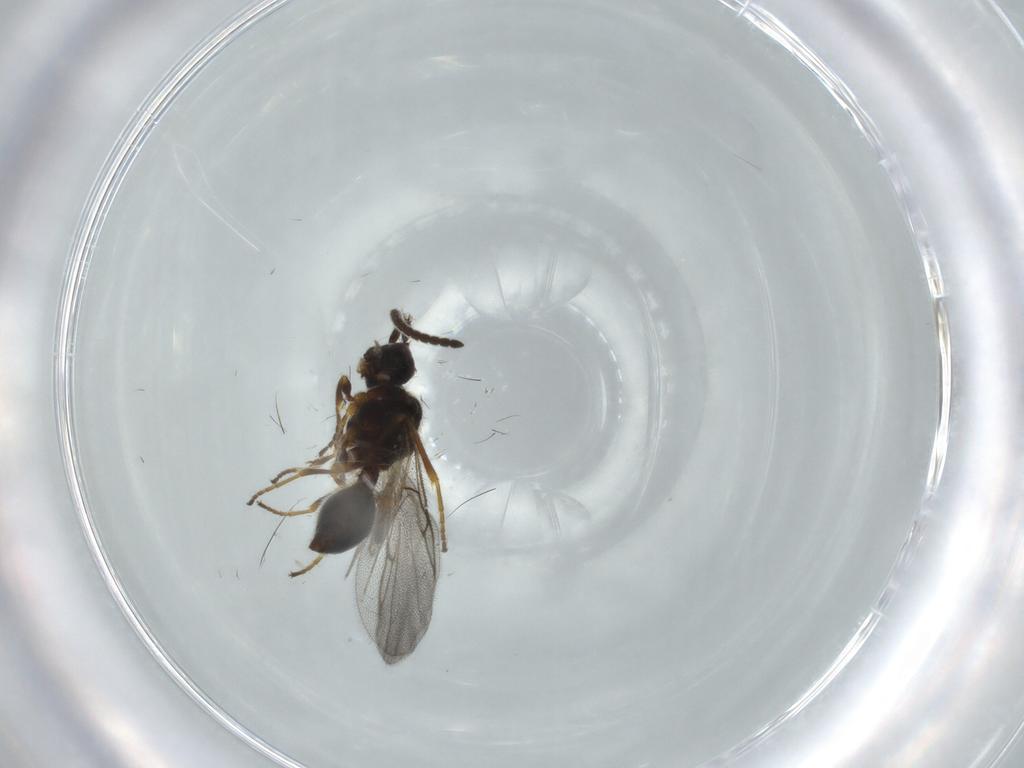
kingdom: Animalia
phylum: Arthropoda
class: Insecta
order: Hymenoptera
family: Diapriidae
